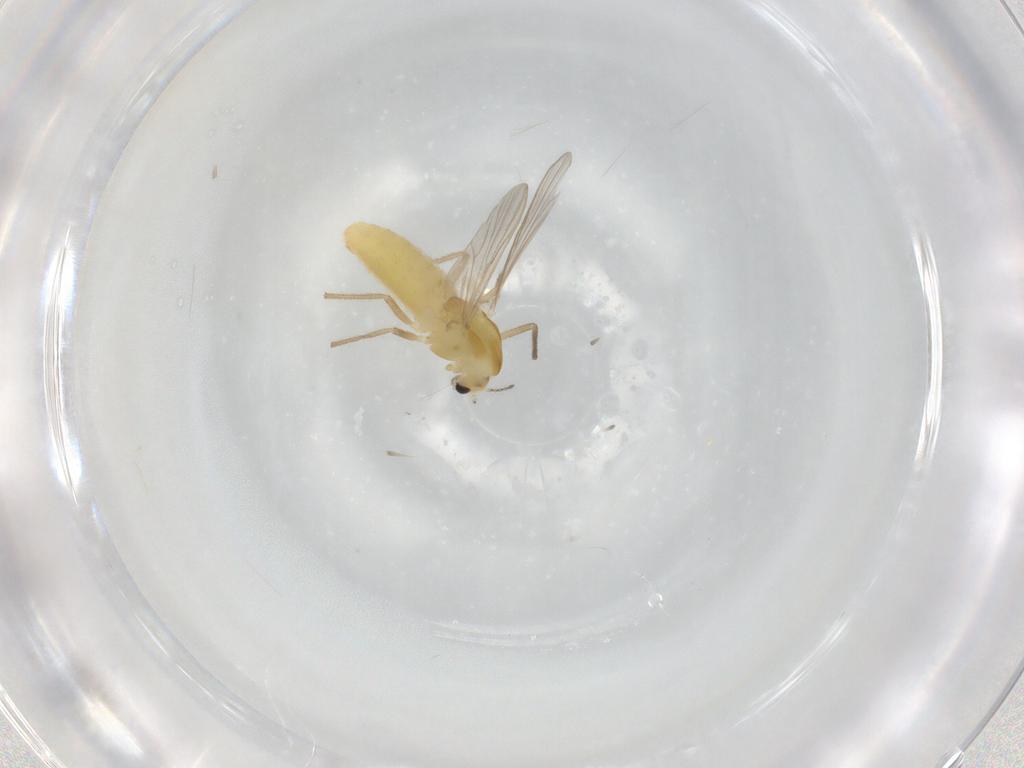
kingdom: Animalia
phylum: Arthropoda
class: Insecta
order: Diptera
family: Chironomidae
